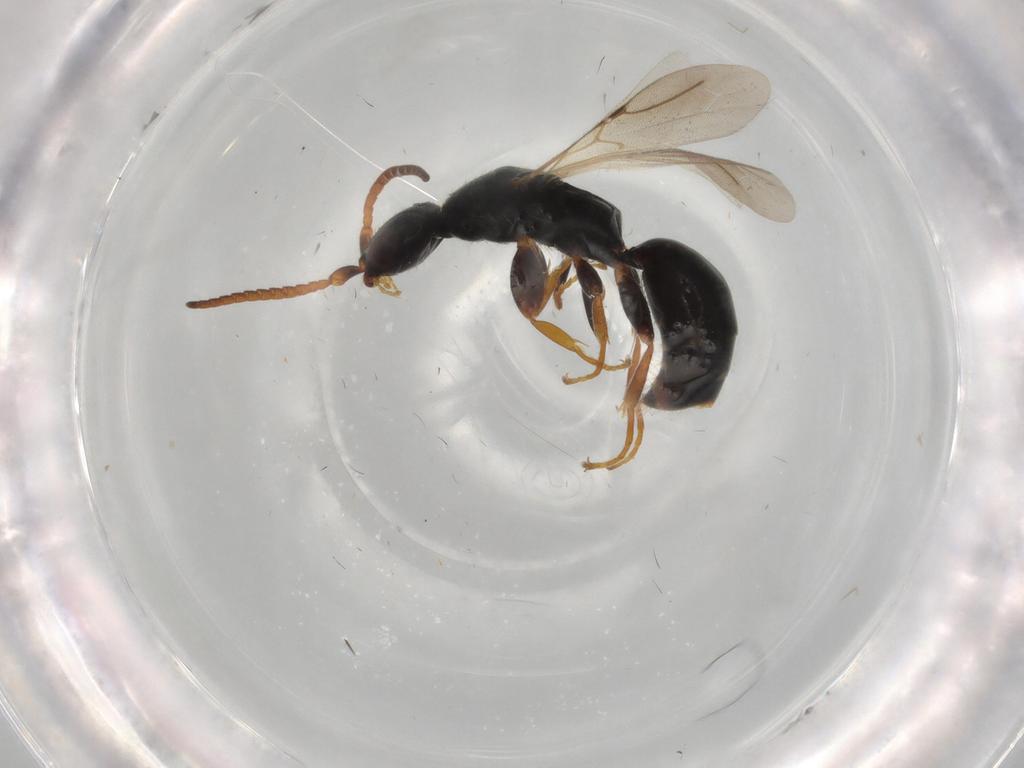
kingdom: Animalia
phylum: Arthropoda
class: Insecta
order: Hymenoptera
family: Bethylidae
